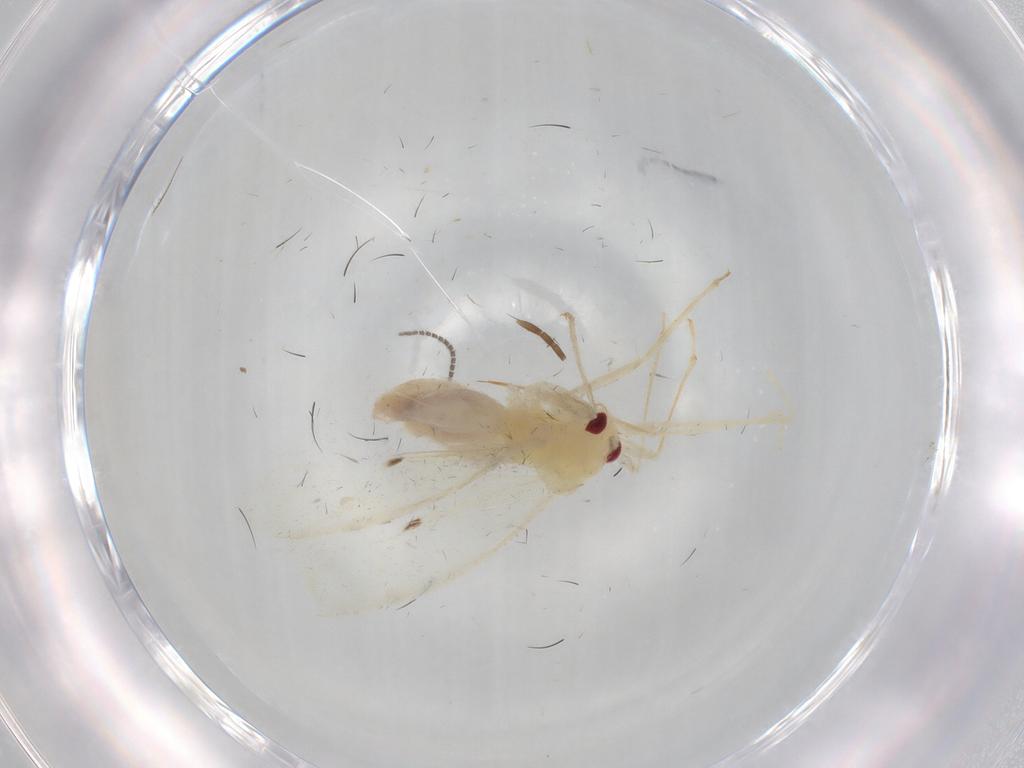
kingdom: Animalia
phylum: Arthropoda
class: Insecta
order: Hemiptera
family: Miridae
